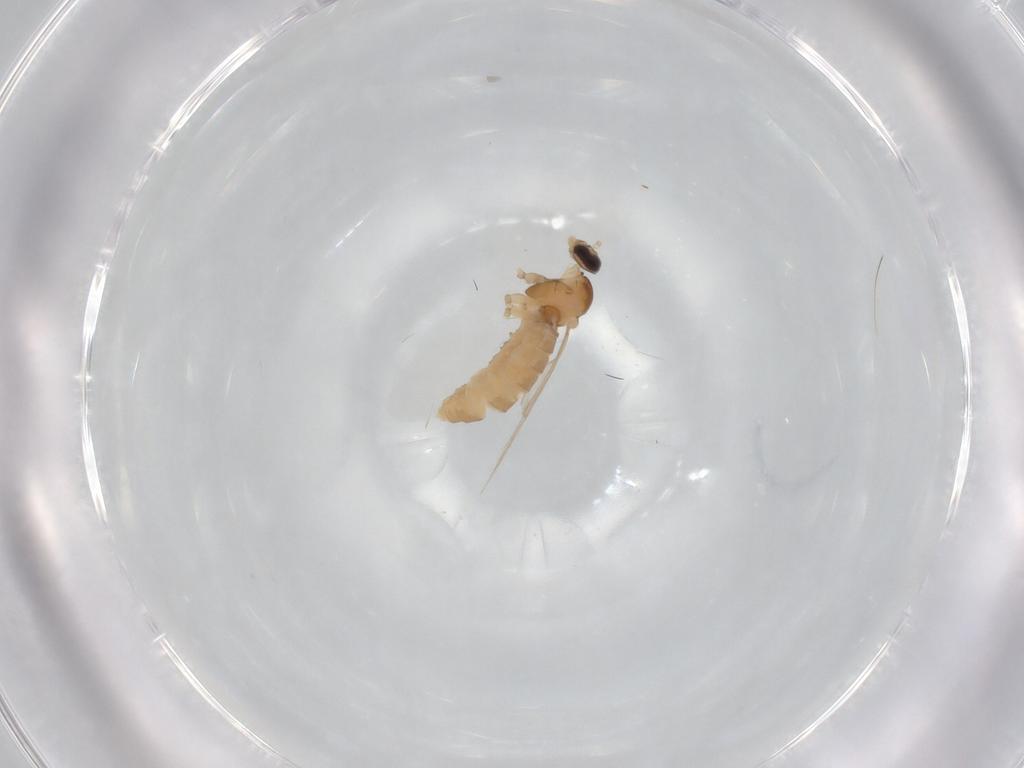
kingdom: Animalia
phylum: Arthropoda
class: Insecta
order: Diptera
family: Cecidomyiidae
